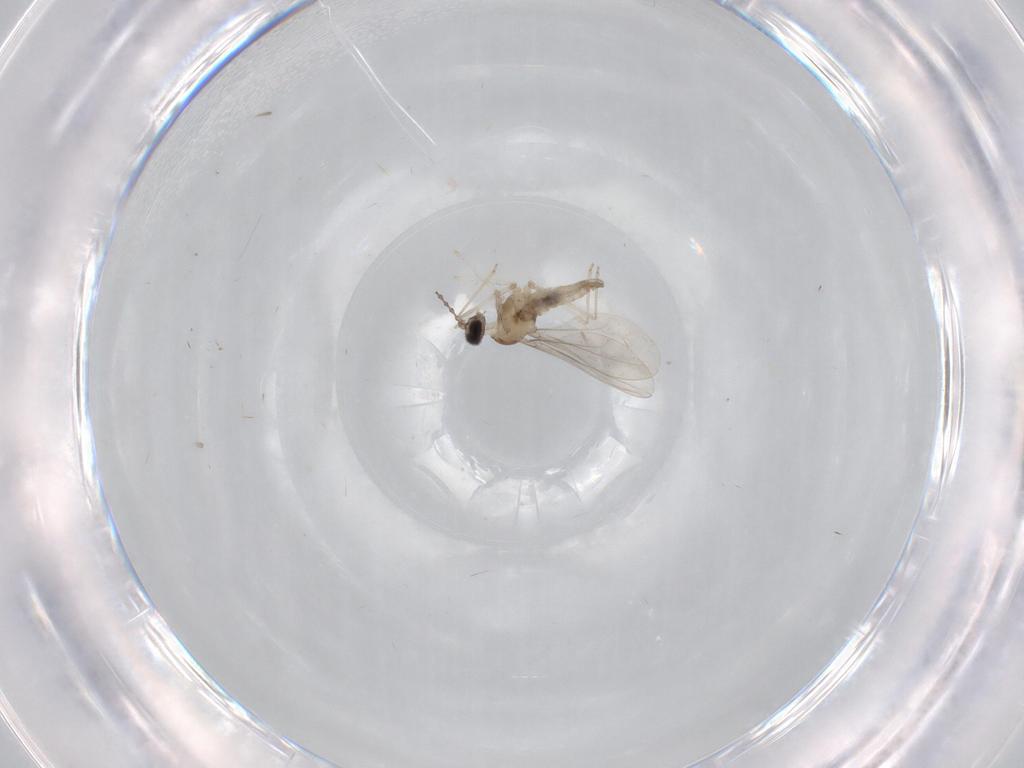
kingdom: Animalia
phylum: Arthropoda
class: Insecta
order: Diptera
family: Cecidomyiidae
